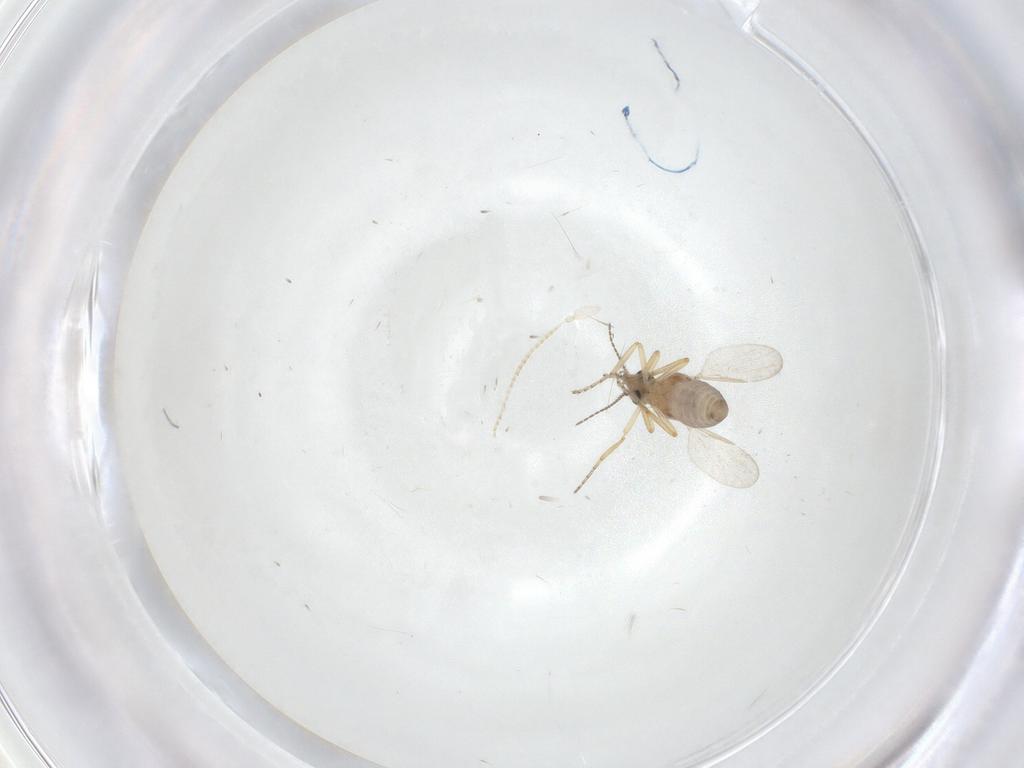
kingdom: Animalia
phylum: Arthropoda
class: Insecta
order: Diptera
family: Ceratopogonidae
